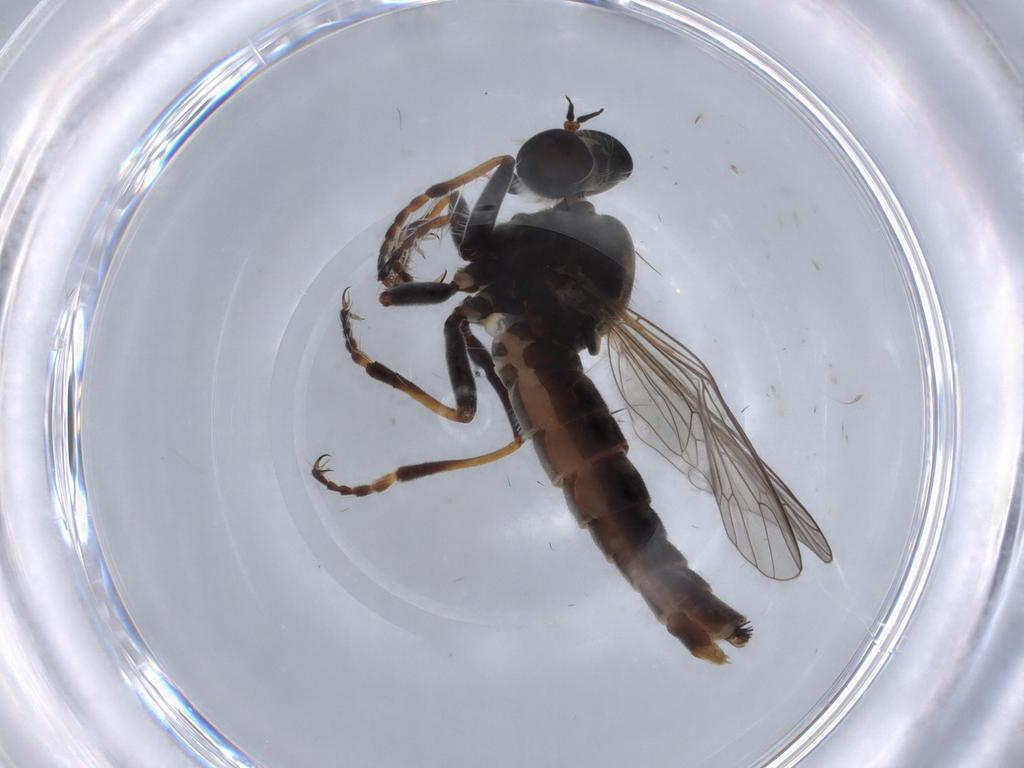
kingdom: Animalia
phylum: Arthropoda
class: Insecta
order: Diptera
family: Asilidae
